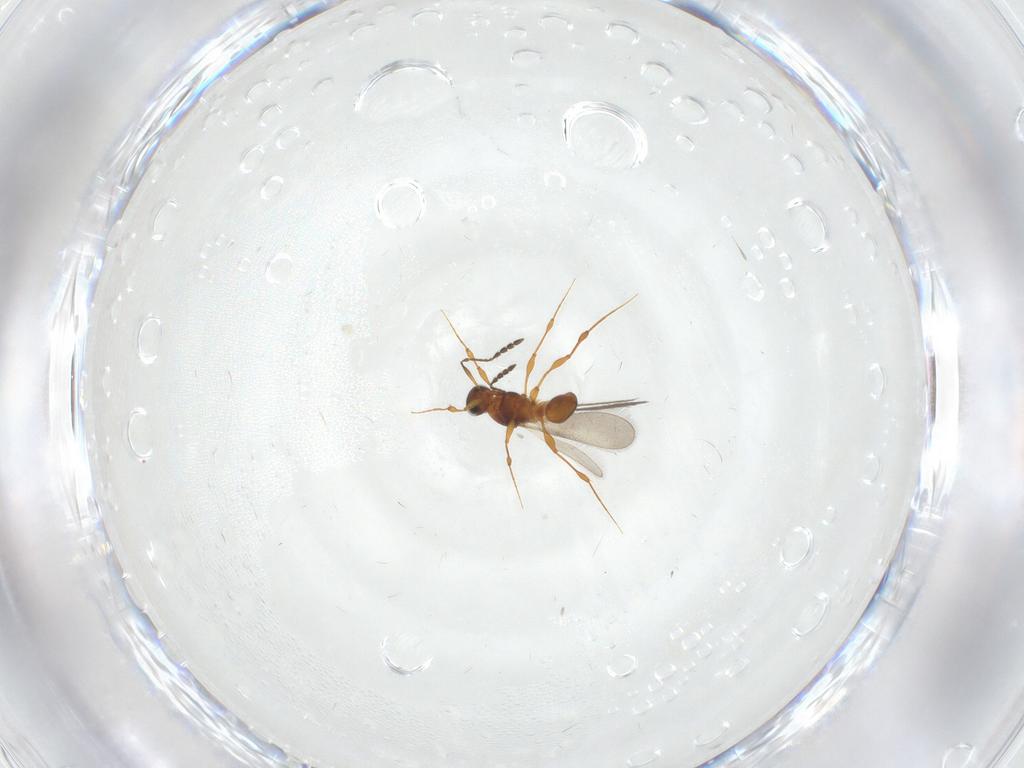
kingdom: Animalia
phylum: Arthropoda
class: Insecta
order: Hymenoptera
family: Platygastridae
